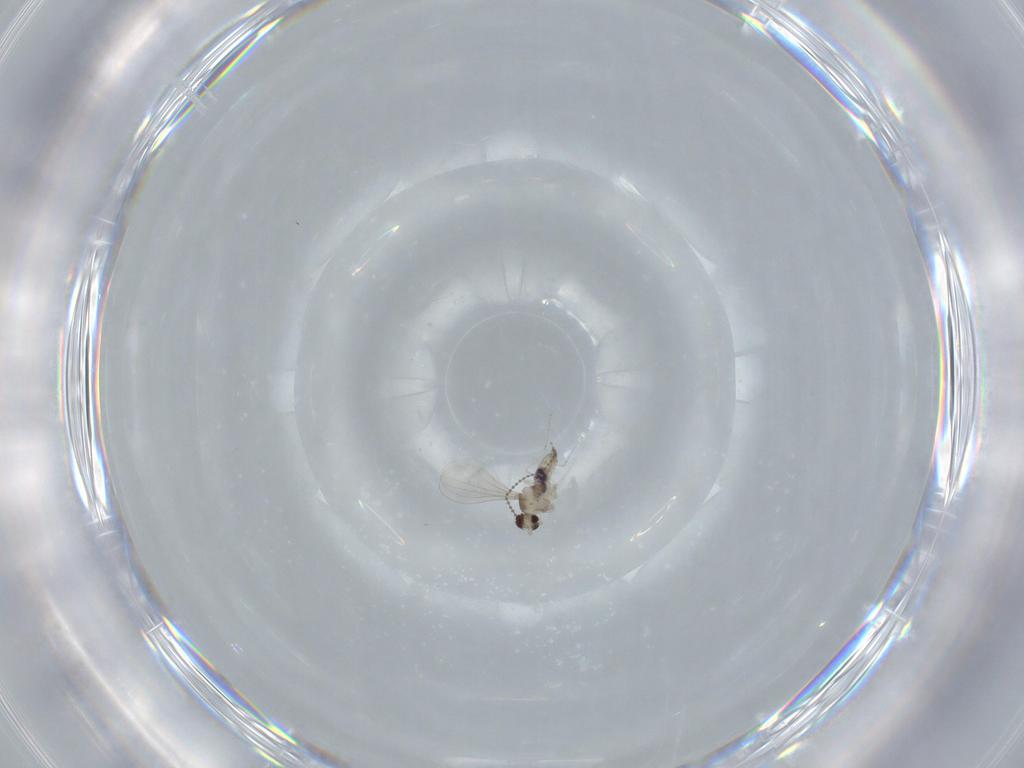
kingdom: Animalia
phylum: Arthropoda
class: Insecta
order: Diptera
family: Cecidomyiidae
